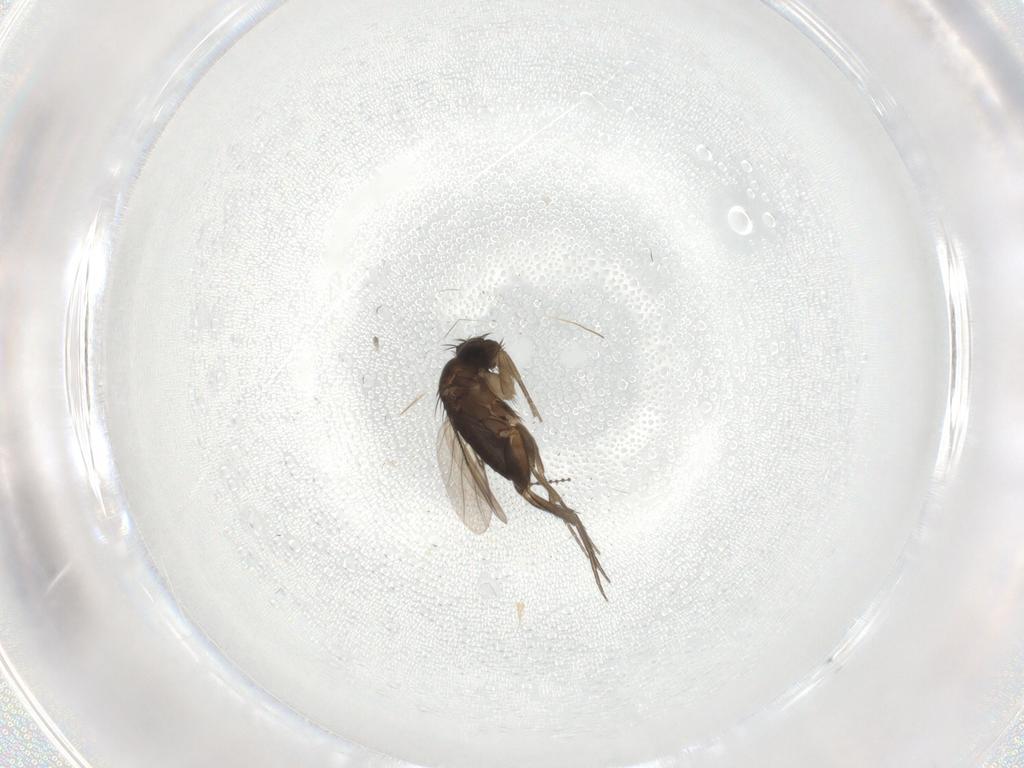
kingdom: Animalia
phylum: Arthropoda
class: Insecta
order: Diptera
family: Phoridae
